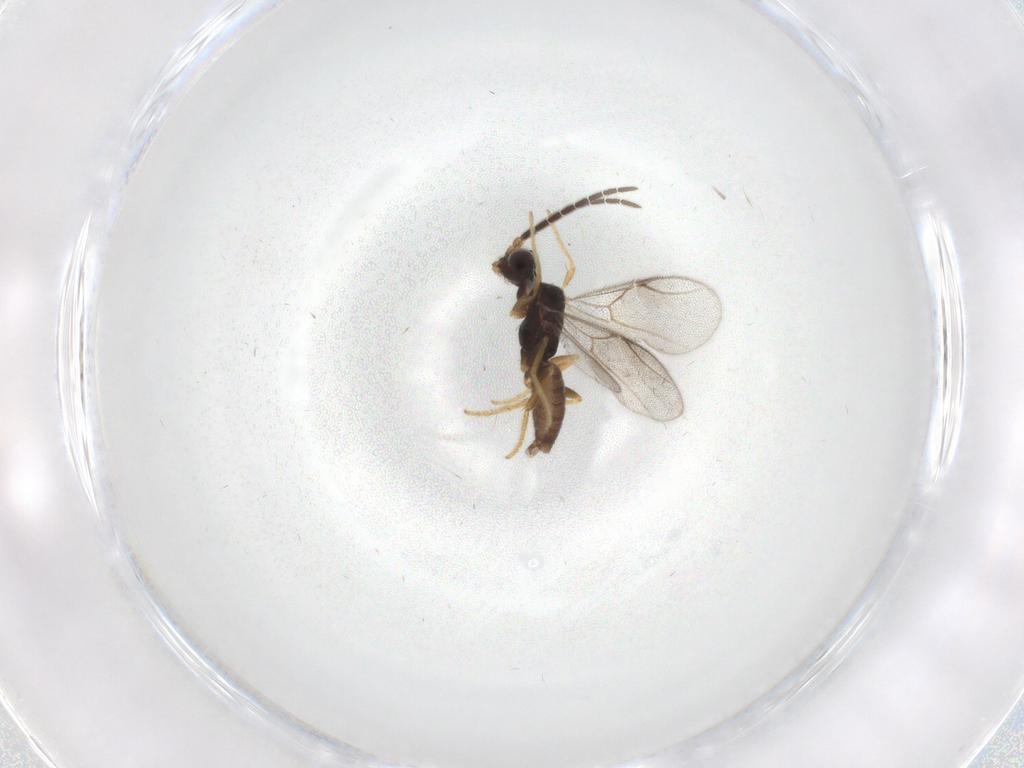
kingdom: Animalia
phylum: Arthropoda
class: Insecta
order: Hymenoptera
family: Dryinidae
